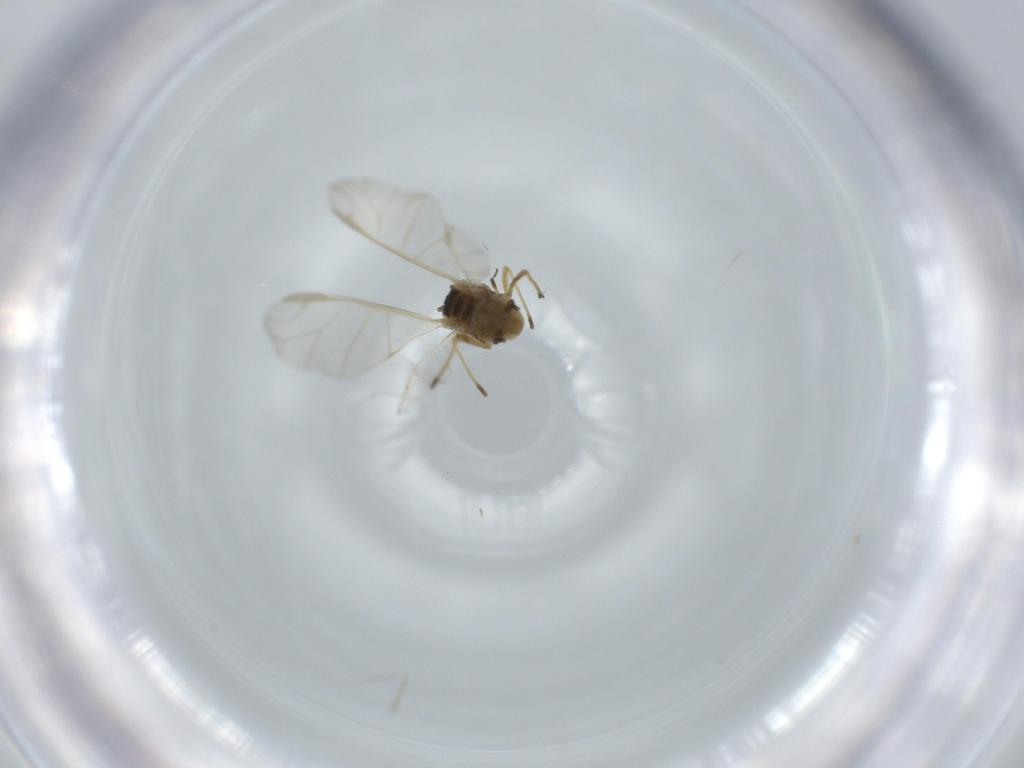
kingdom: Animalia
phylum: Arthropoda
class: Insecta
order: Hemiptera
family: Aphididae
